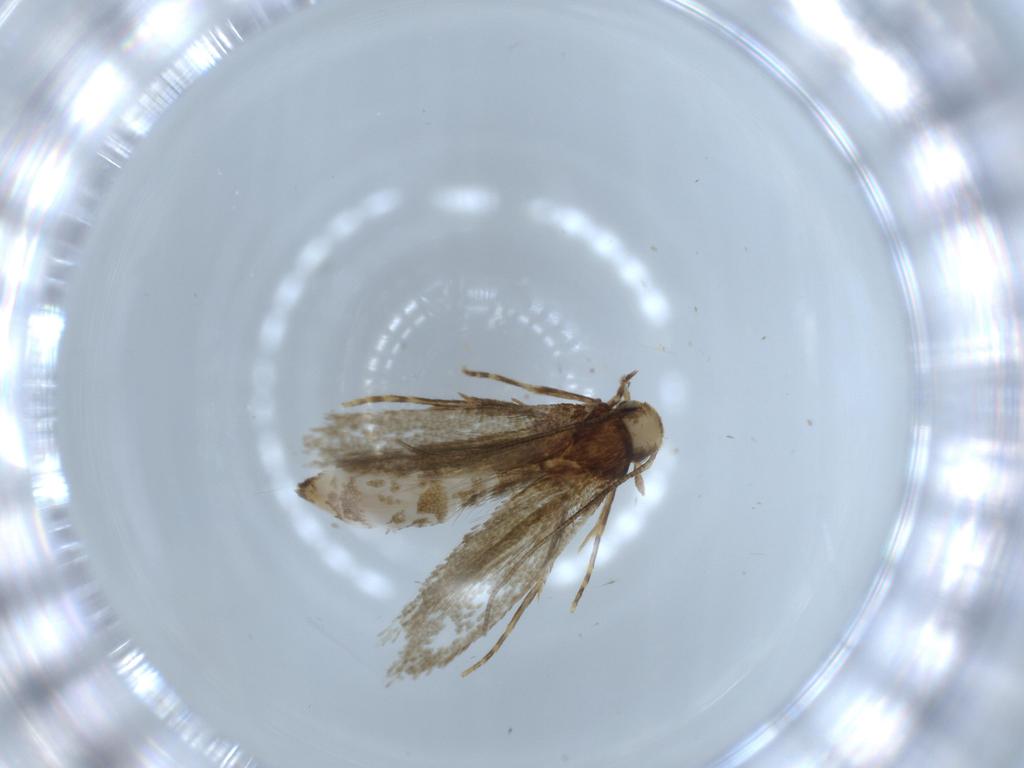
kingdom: Animalia
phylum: Arthropoda
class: Insecta
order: Lepidoptera
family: Tineidae
